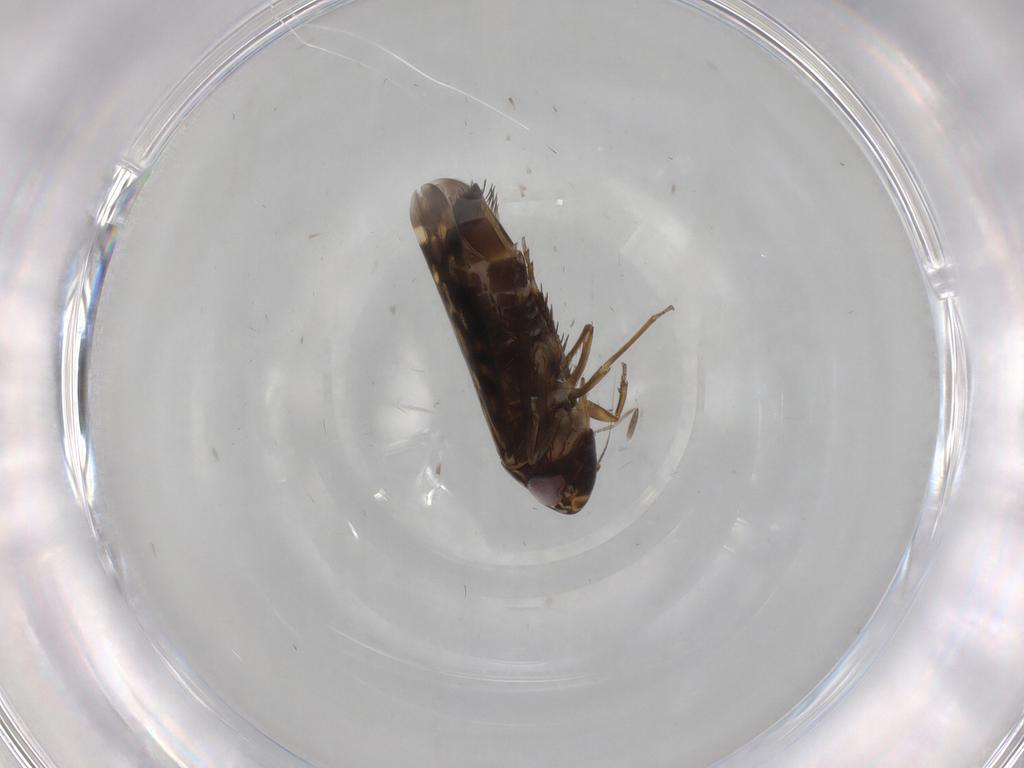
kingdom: Animalia
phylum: Arthropoda
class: Insecta
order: Hemiptera
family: Cicadellidae
